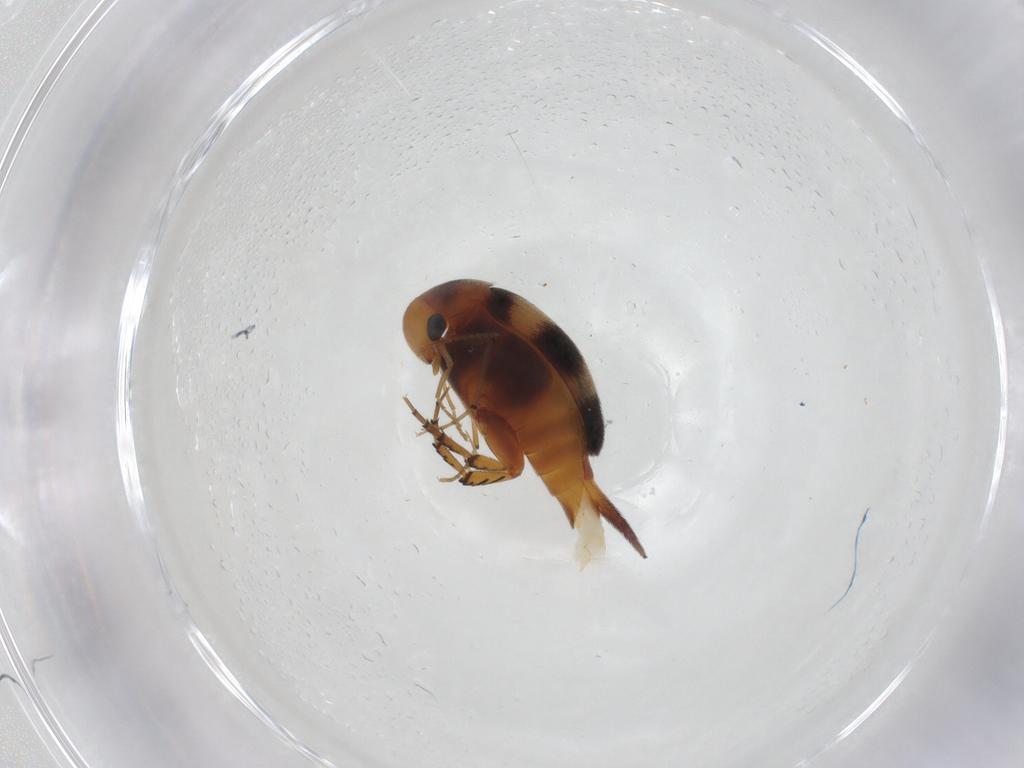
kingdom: Animalia
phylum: Arthropoda
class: Insecta
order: Coleoptera
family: Mordellidae
